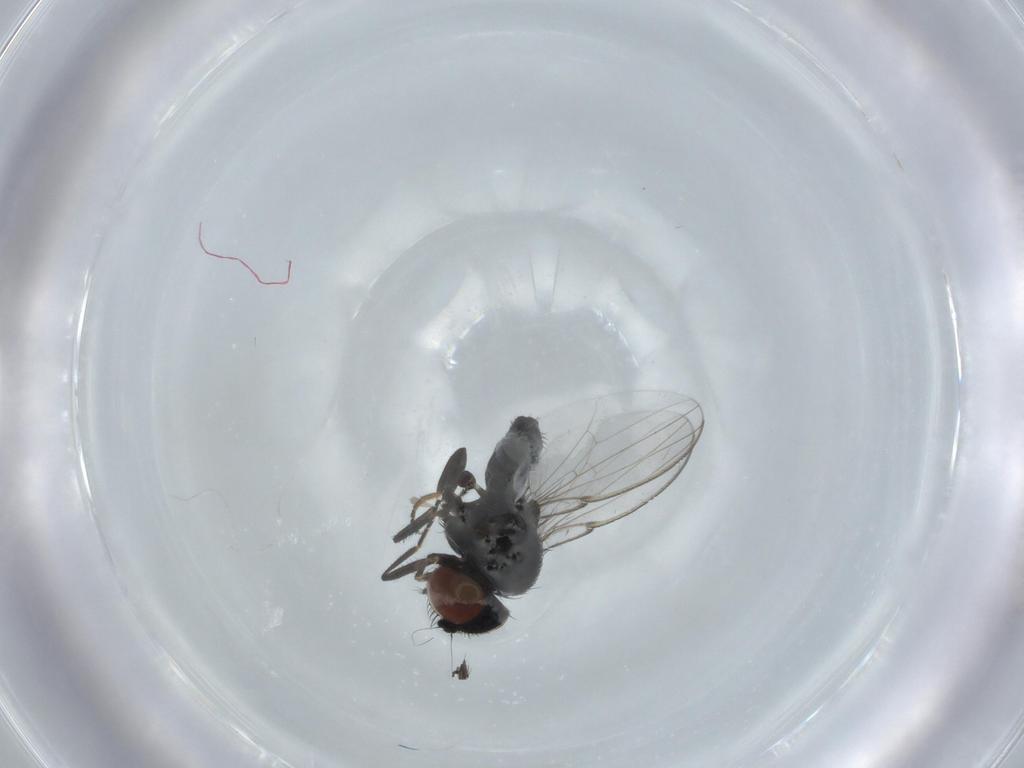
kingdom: Animalia
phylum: Arthropoda
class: Insecta
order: Diptera
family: Milichiidae
